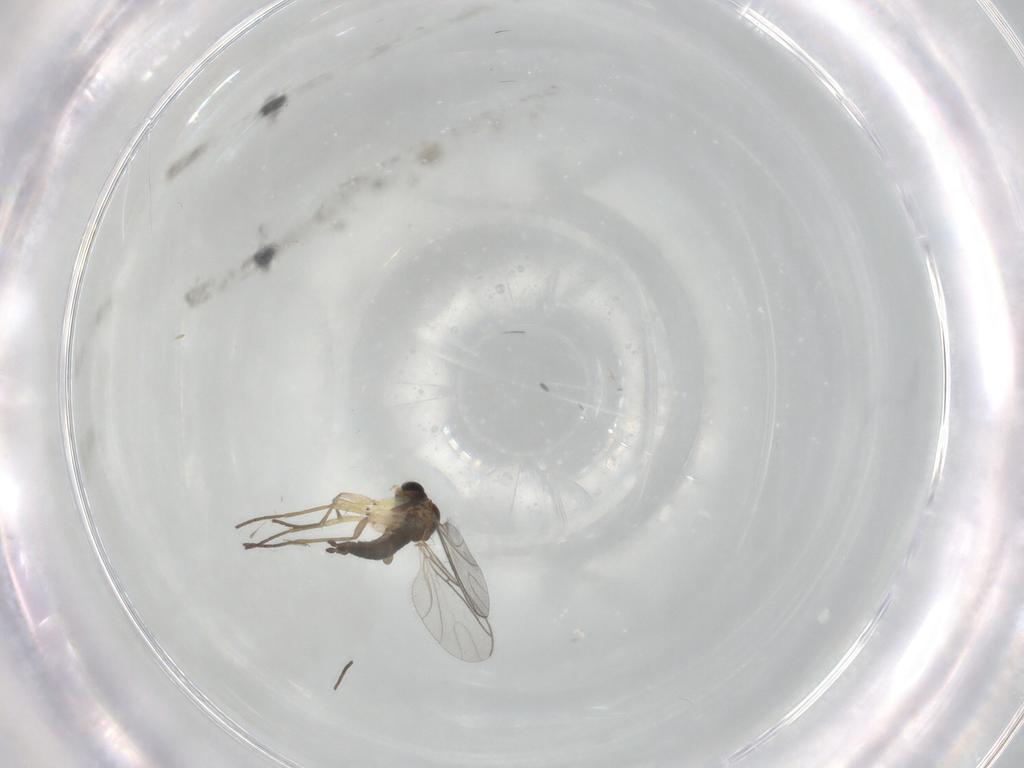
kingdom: Animalia
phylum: Arthropoda
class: Insecta
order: Diptera
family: Sciaridae
